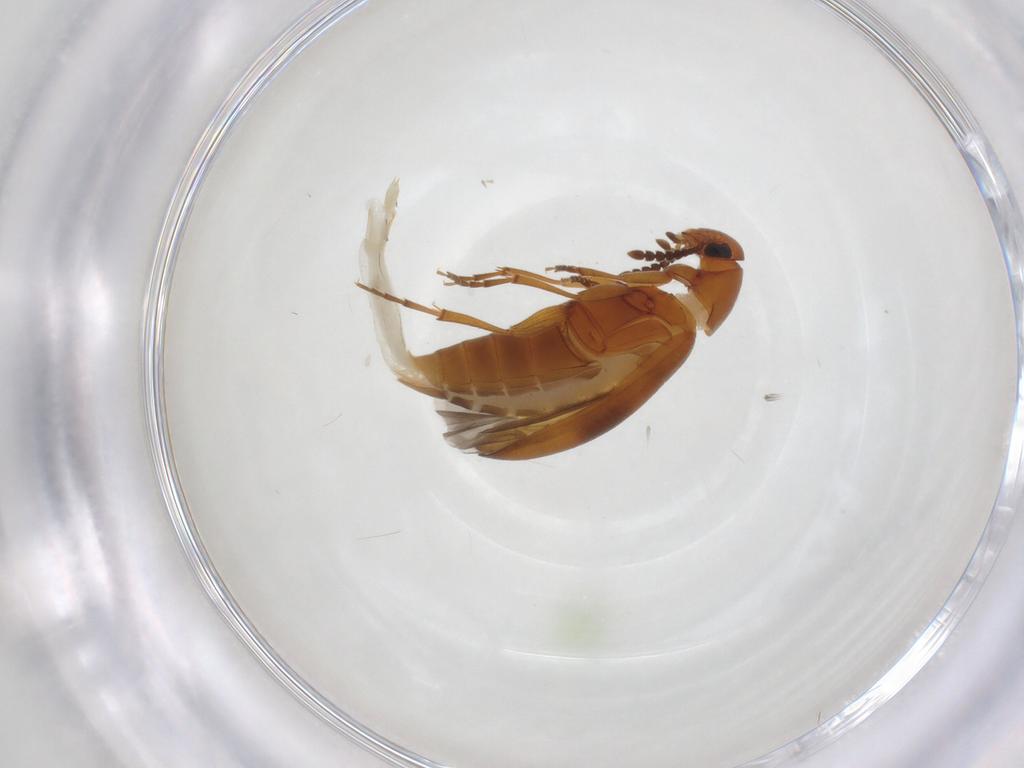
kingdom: Animalia
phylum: Arthropoda
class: Insecta
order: Coleoptera
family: Scraptiidae
